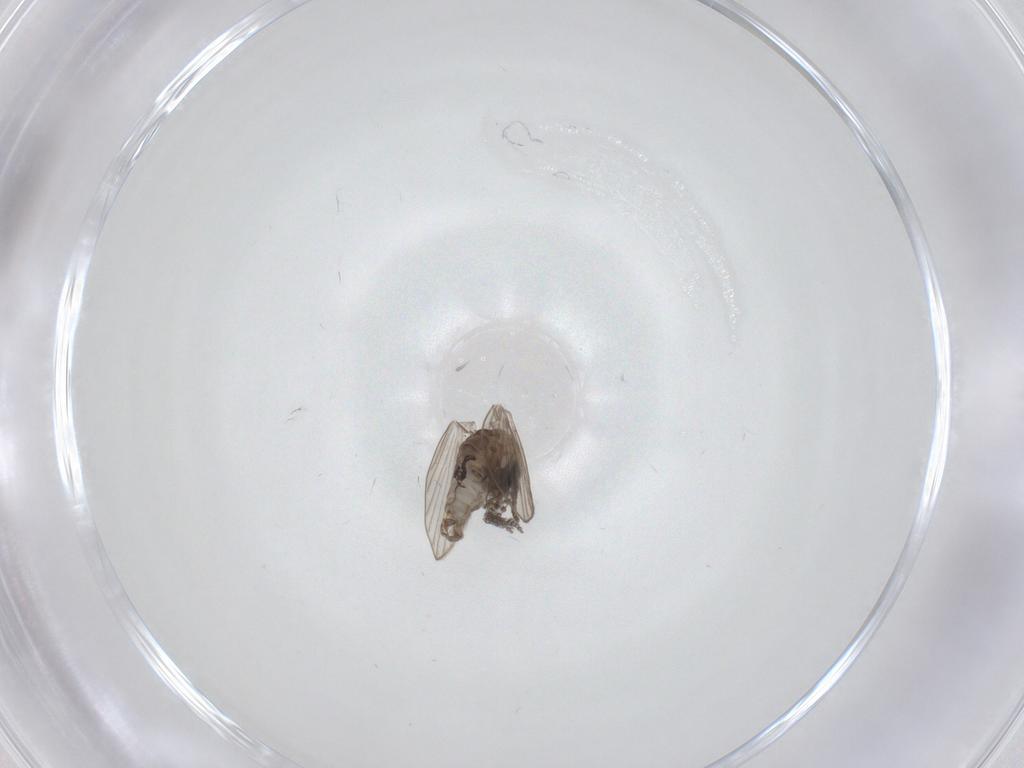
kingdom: Animalia
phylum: Arthropoda
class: Insecta
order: Diptera
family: Psychodidae
